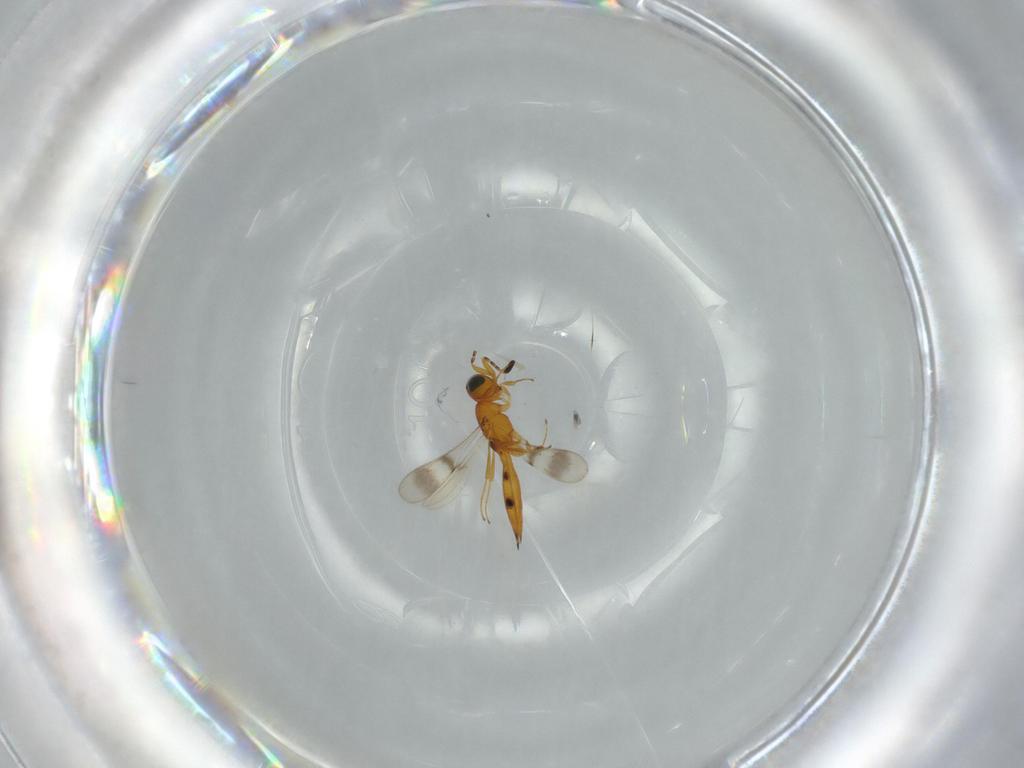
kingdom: Animalia
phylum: Arthropoda
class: Insecta
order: Hymenoptera
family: Scelionidae
